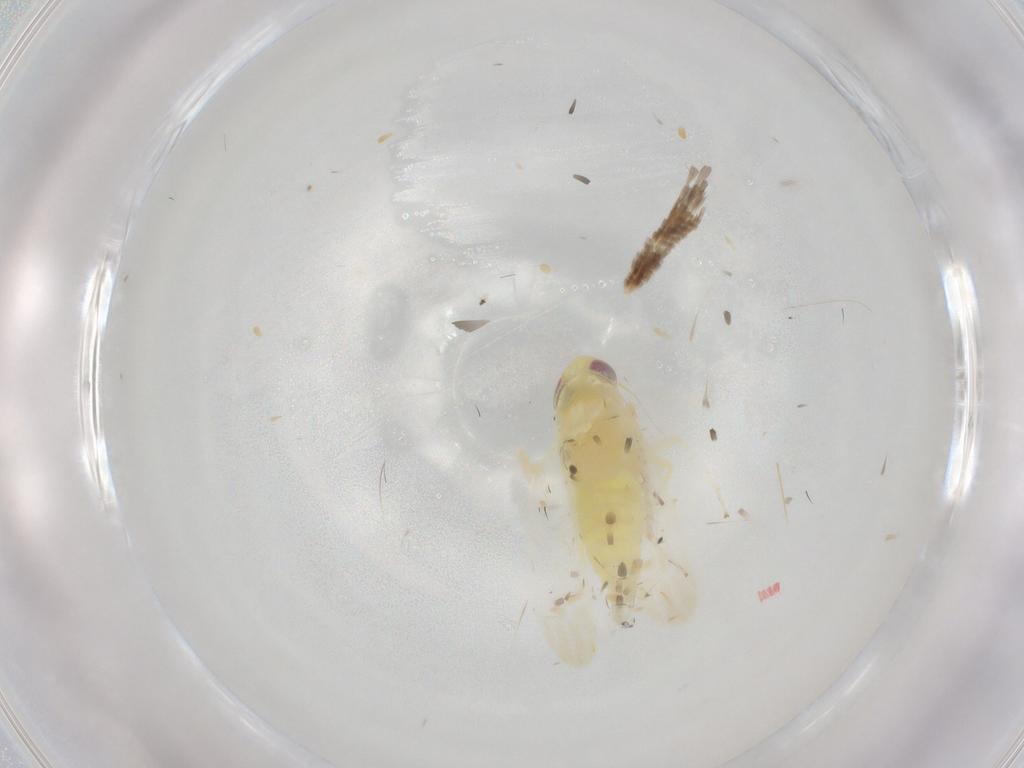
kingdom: Animalia
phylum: Arthropoda
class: Insecta
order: Hemiptera
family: Cicadellidae
